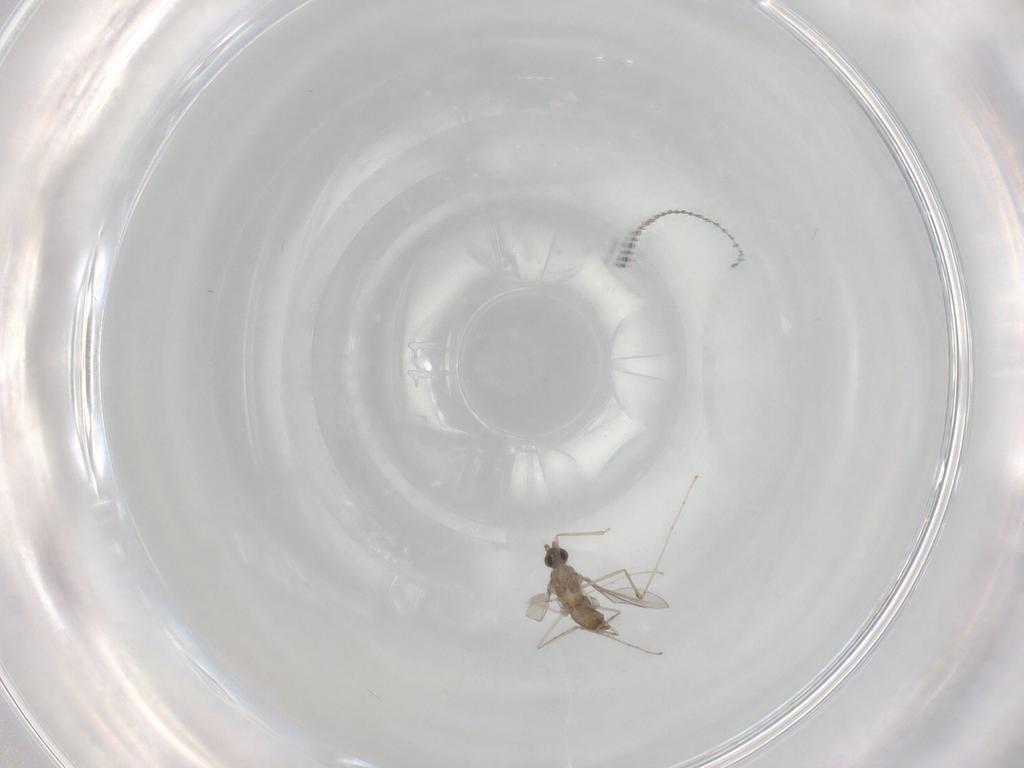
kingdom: Animalia
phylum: Arthropoda
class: Insecta
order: Diptera
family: Cecidomyiidae
